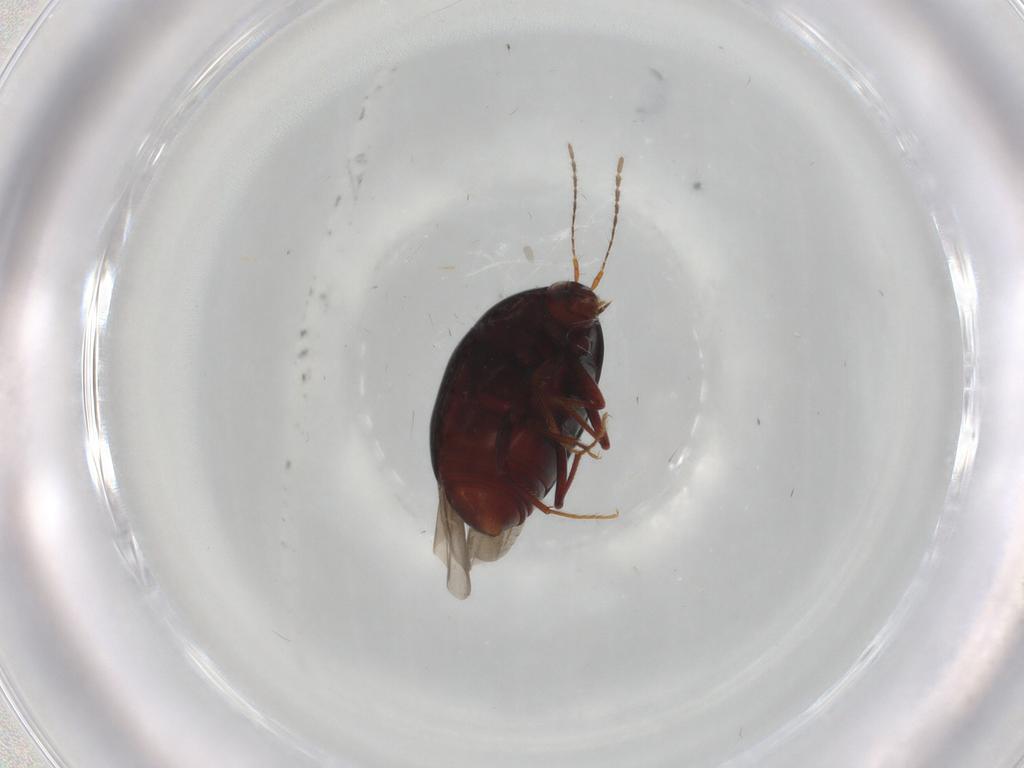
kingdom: Animalia
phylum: Arthropoda
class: Insecta
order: Coleoptera
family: Staphylinidae
